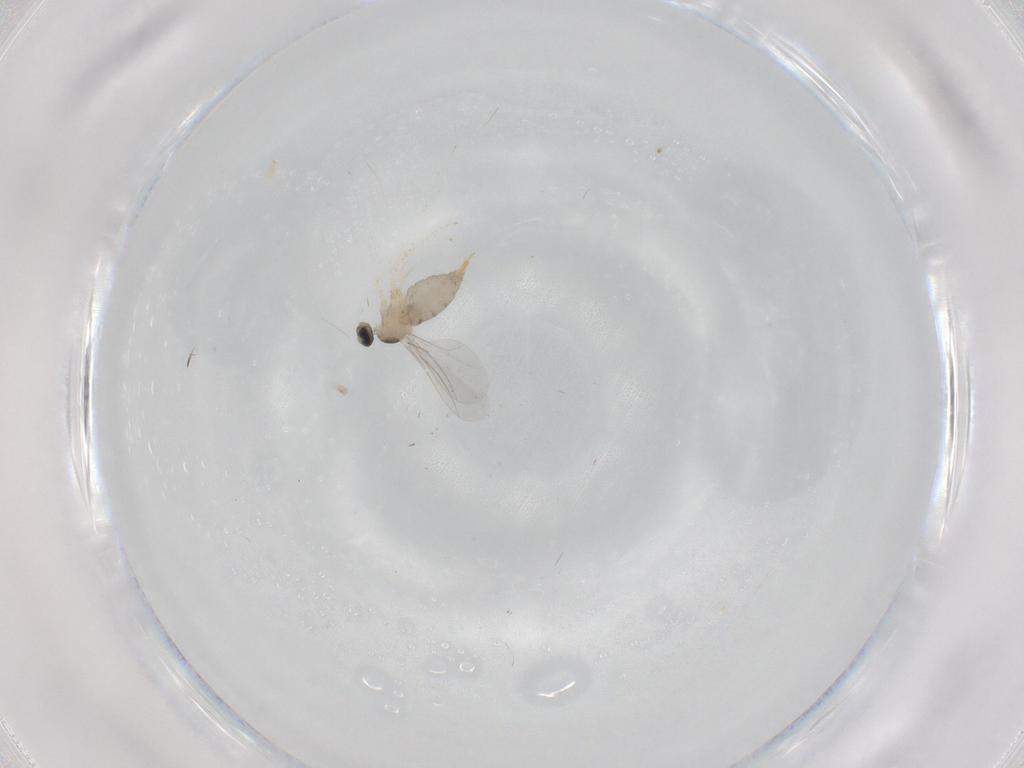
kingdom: Animalia
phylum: Arthropoda
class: Insecta
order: Diptera
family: Cecidomyiidae
